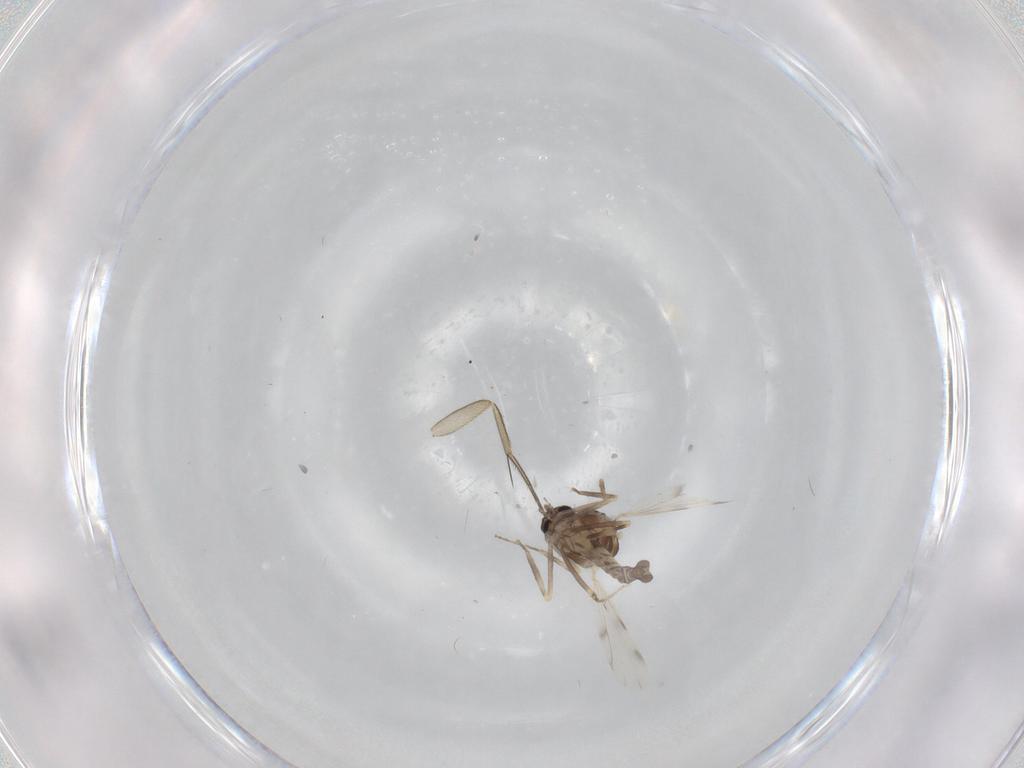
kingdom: Animalia
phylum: Arthropoda
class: Insecta
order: Diptera
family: Ceratopogonidae
